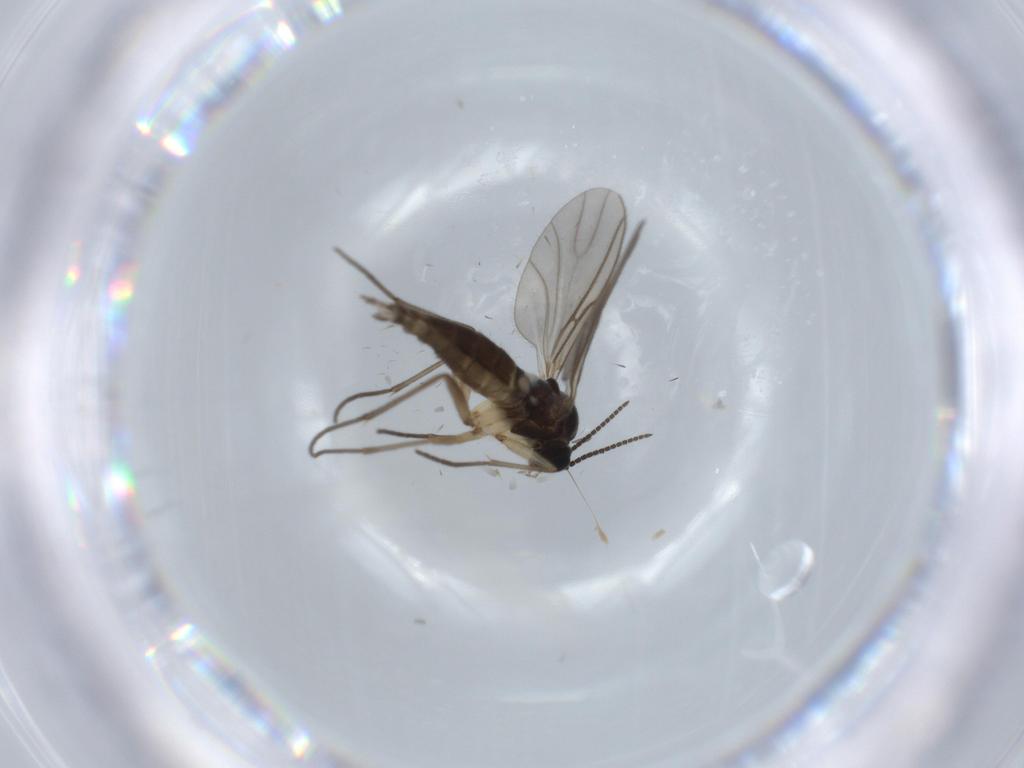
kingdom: Animalia
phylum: Arthropoda
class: Insecta
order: Diptera
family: Sciaridae
